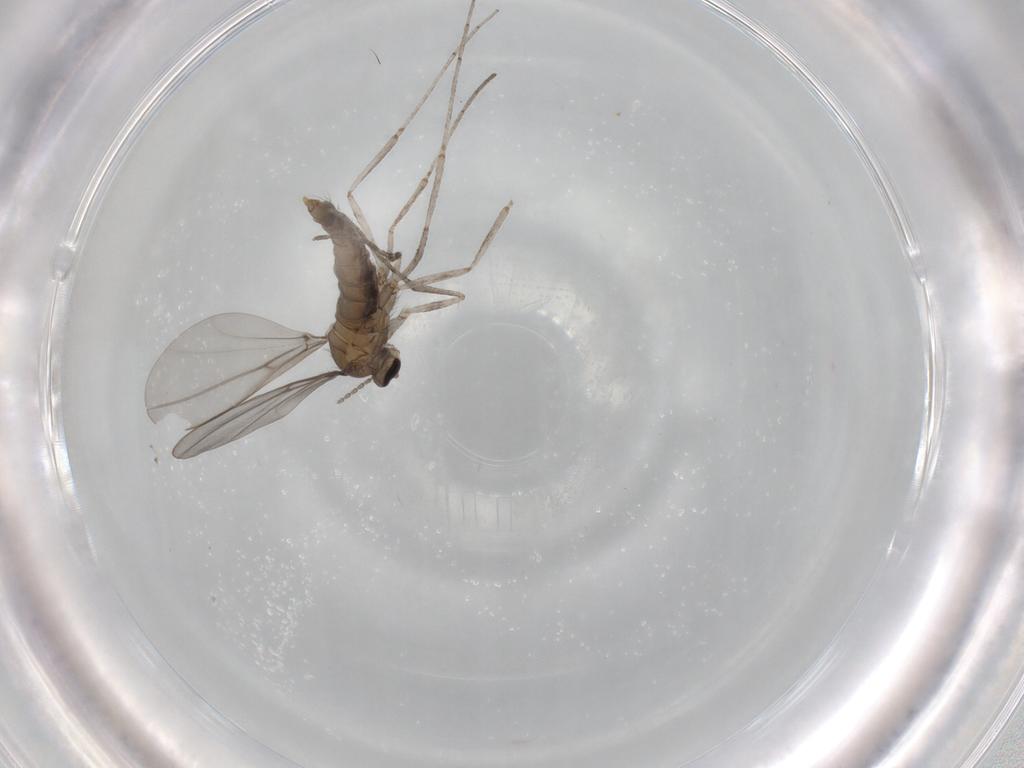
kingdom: Animalia
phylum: Arthropoda
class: Insecta
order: Diptera
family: Cecidomyiidae
